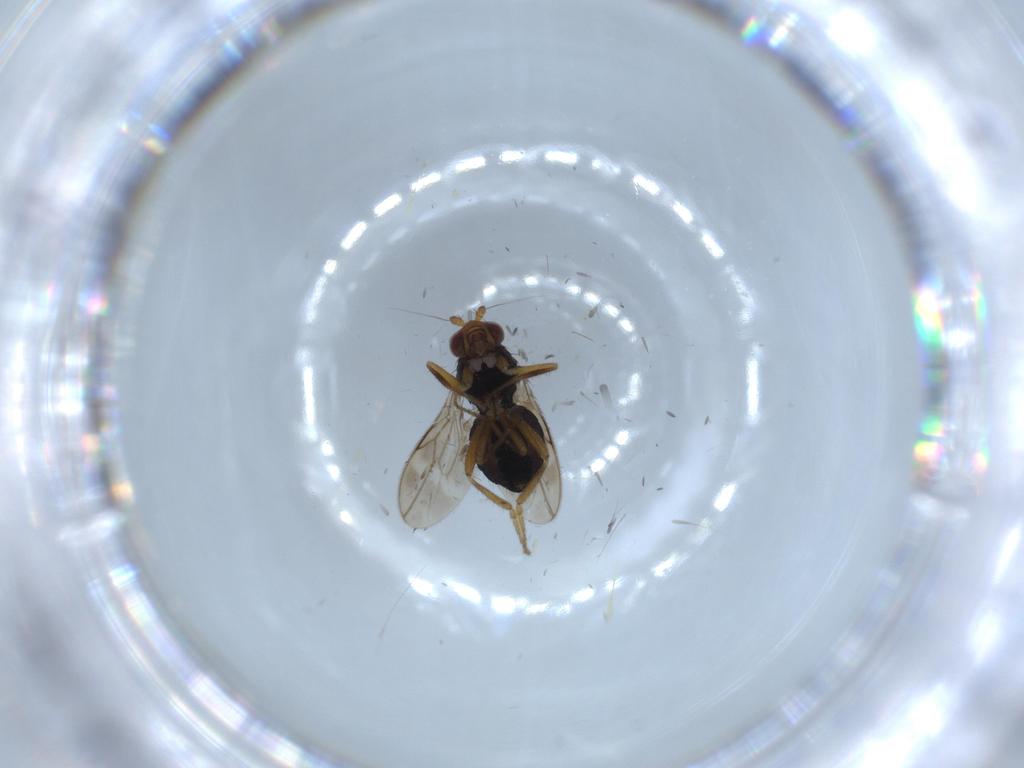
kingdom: Animalia
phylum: Arthropoda
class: Insecta
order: Diptera
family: Sphaeroceridae
